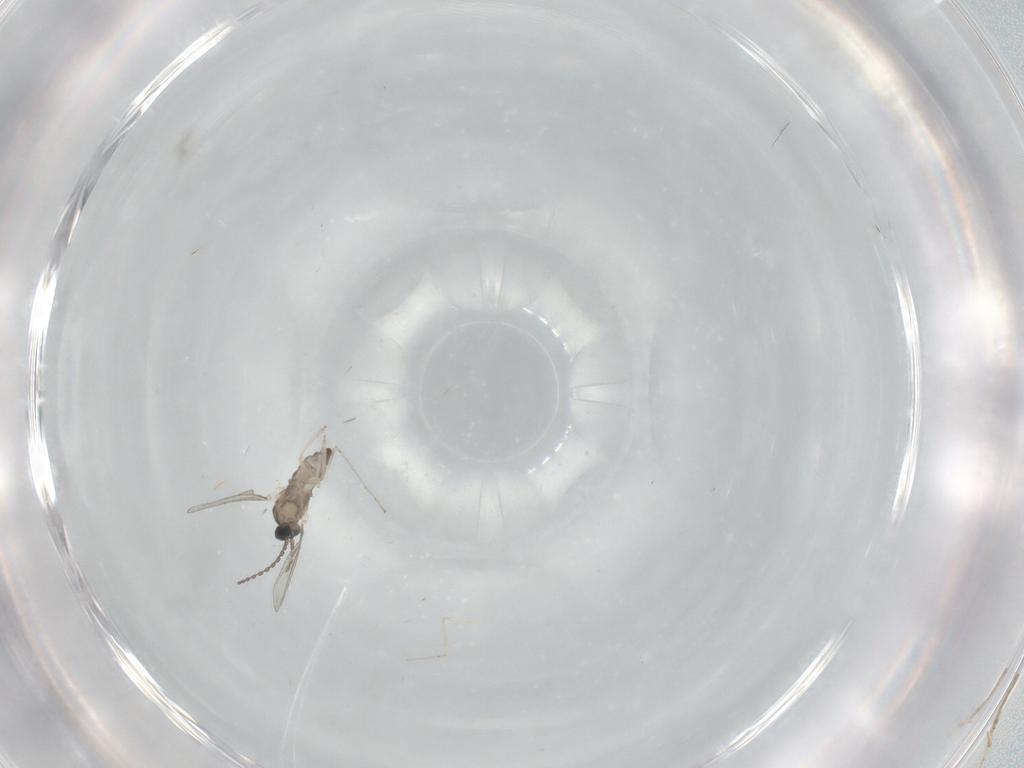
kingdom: Animalia
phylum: Arthropoda
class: Insecta
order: Diptera
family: Cecidomyiidae
